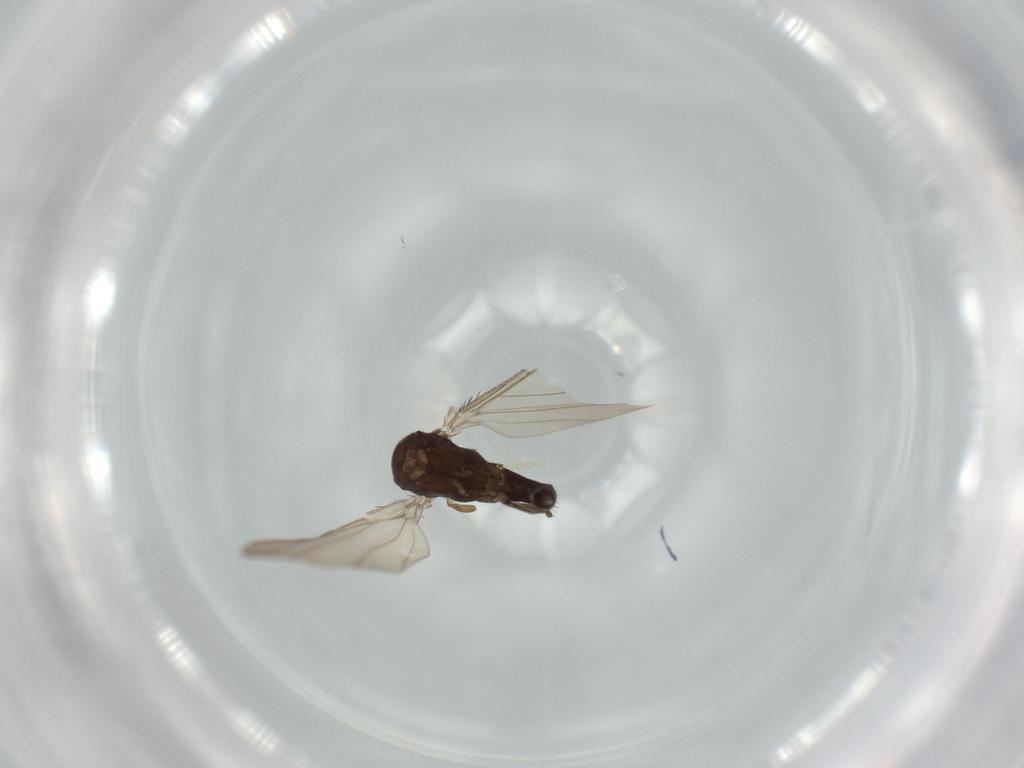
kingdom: Animalia
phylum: Arthropoda
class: Insecta
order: Diptera
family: Phoridae
